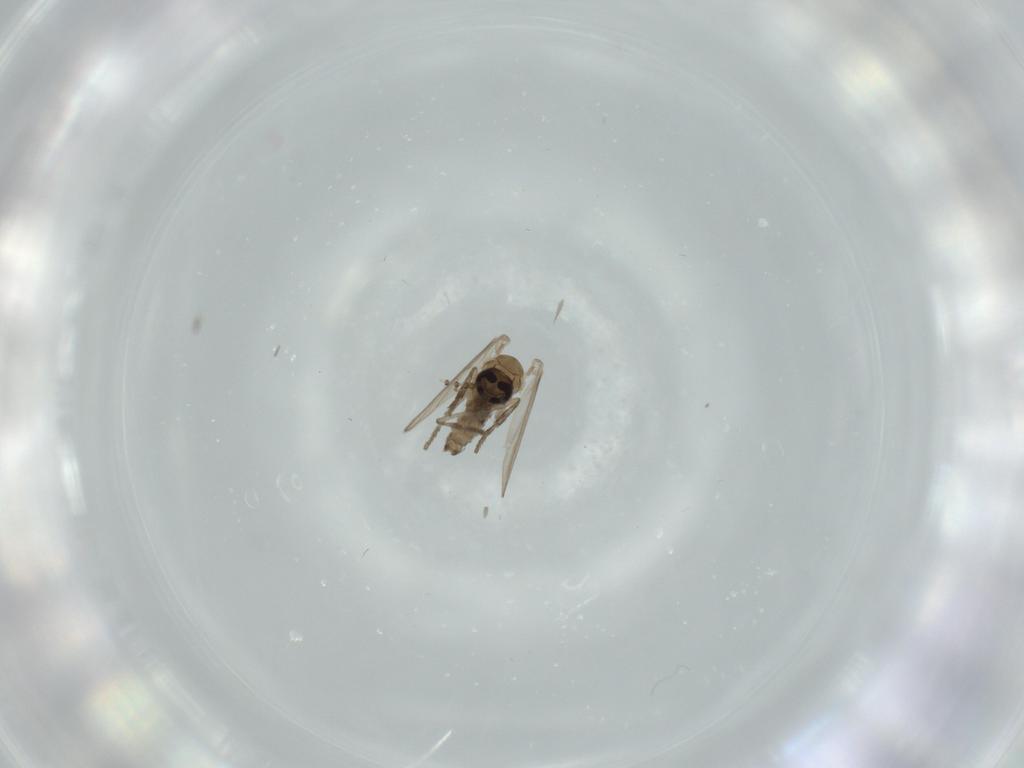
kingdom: Animalia
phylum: Arthropoda
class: Insecta
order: Diptera
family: Psychodidae
